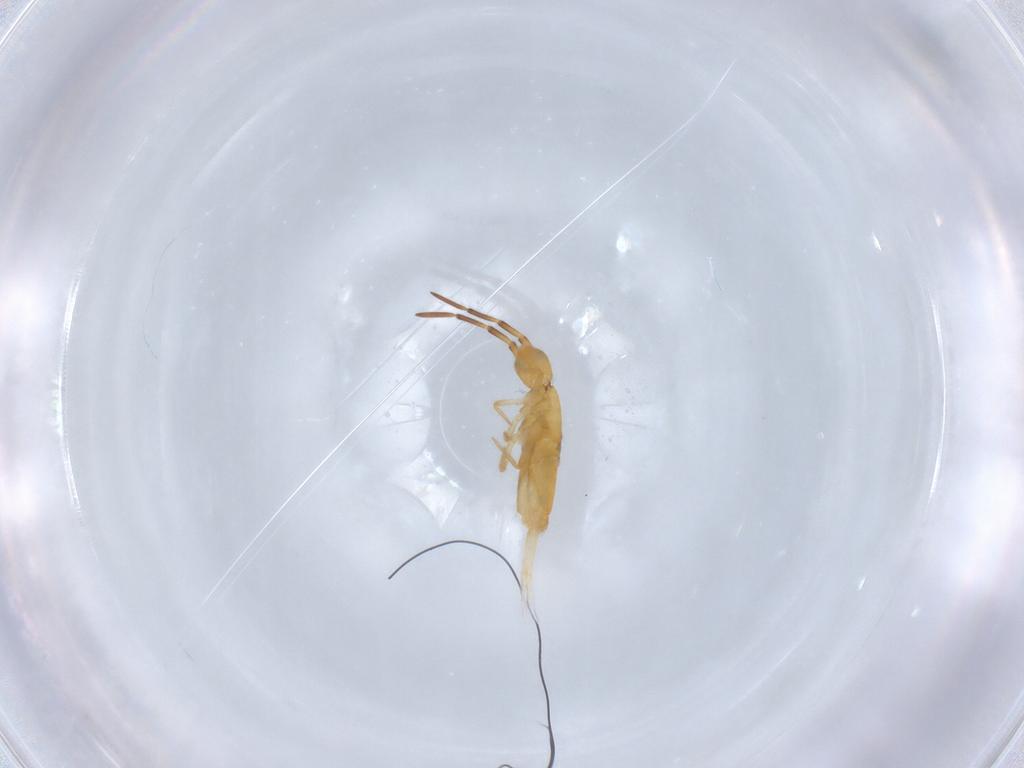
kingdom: Animalia
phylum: Arthropoda
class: Collembola
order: Entomobryomorpha
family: Entomobryidae
